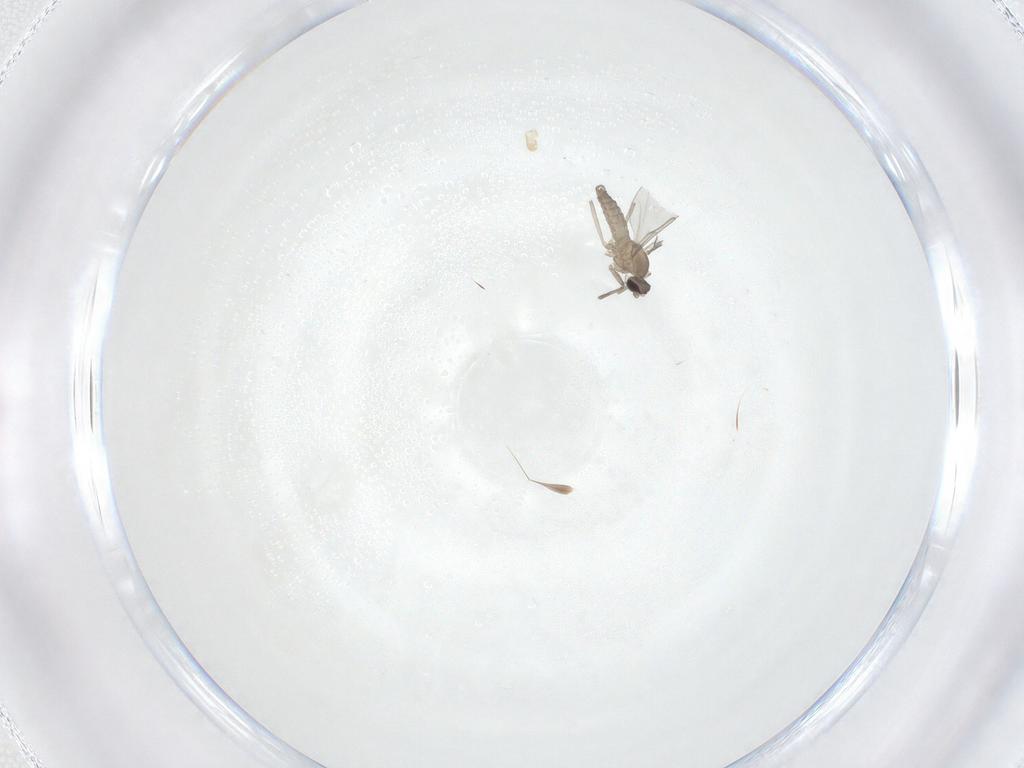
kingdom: Animalia
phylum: Arthropoda
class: Insecta
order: Diptera
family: Cecidomyiidae
